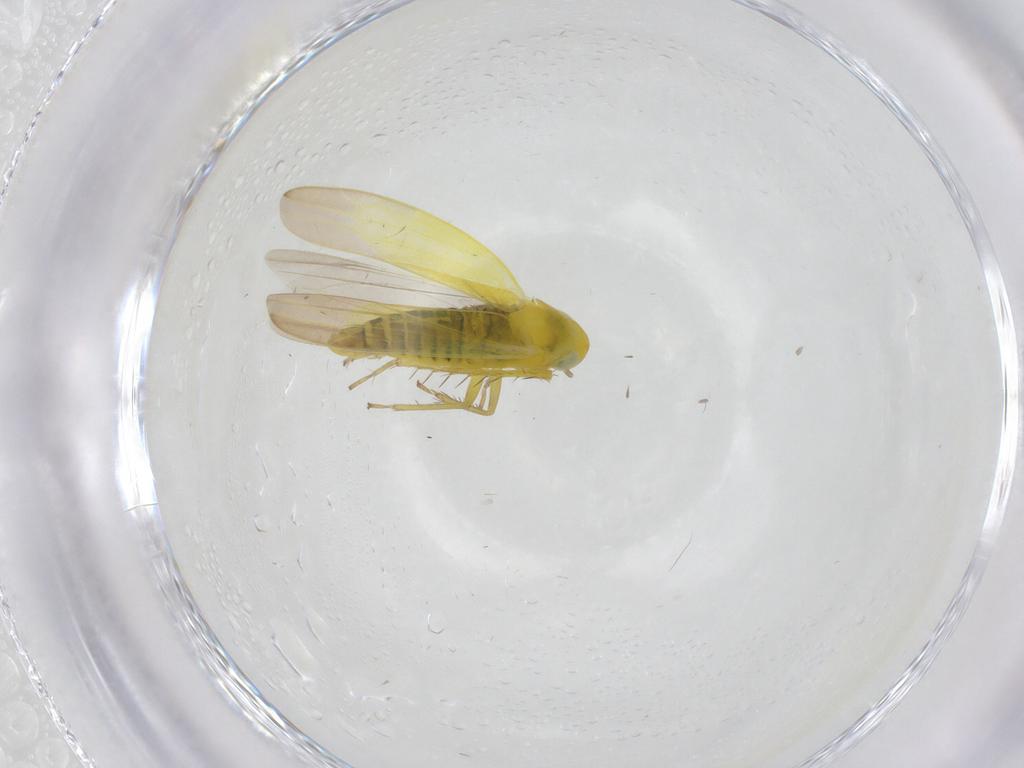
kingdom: Animalia
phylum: Arthropoda
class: Insecta
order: Hemiptera
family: Cicadellidae
